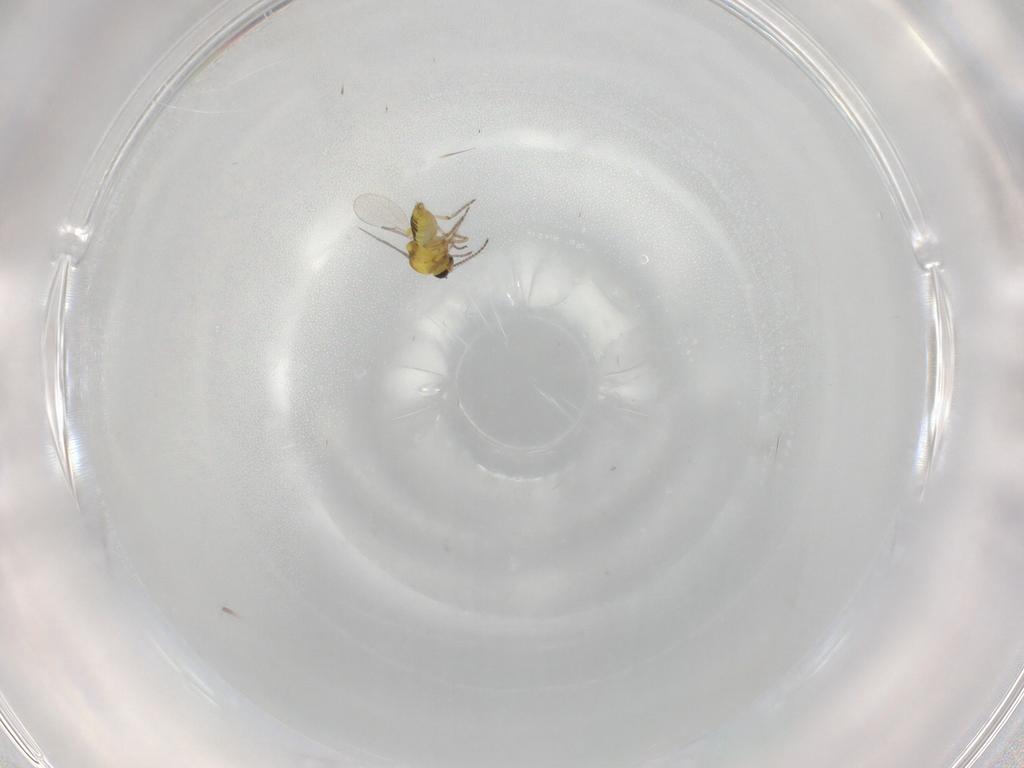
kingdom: Animalia
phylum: Arthropoda
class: Insecta
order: Diptera
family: Ceratopogonidae
